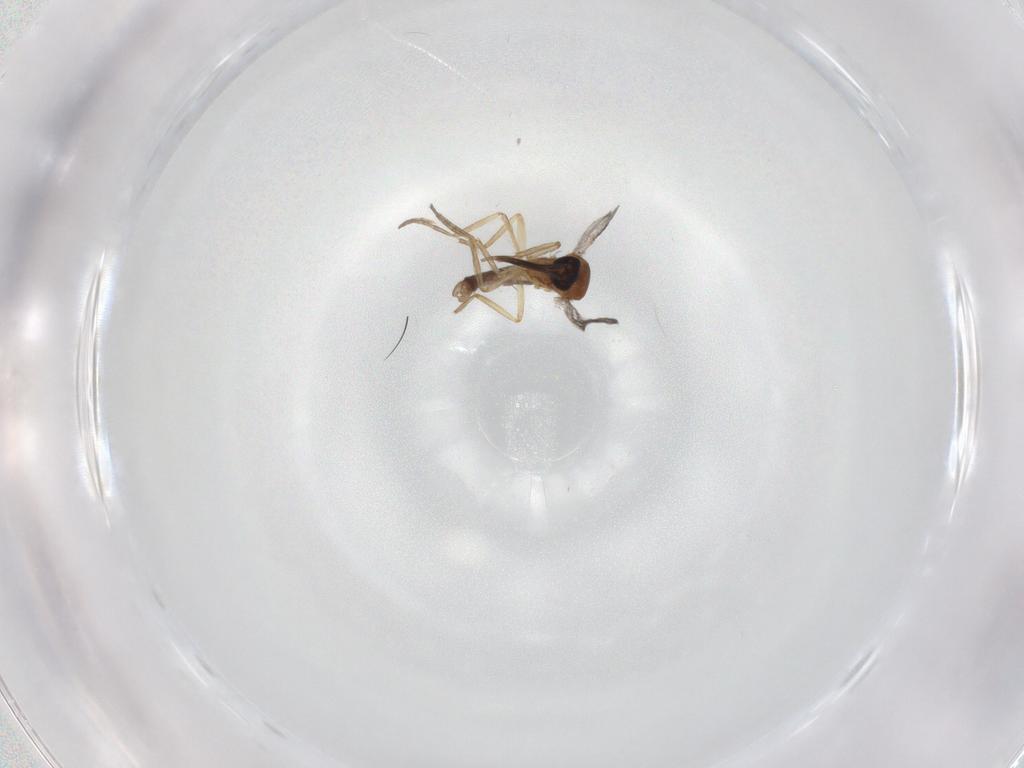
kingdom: Animalia
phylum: Arthropoda
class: Insecta
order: Diptera
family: Ceratopogonidae
